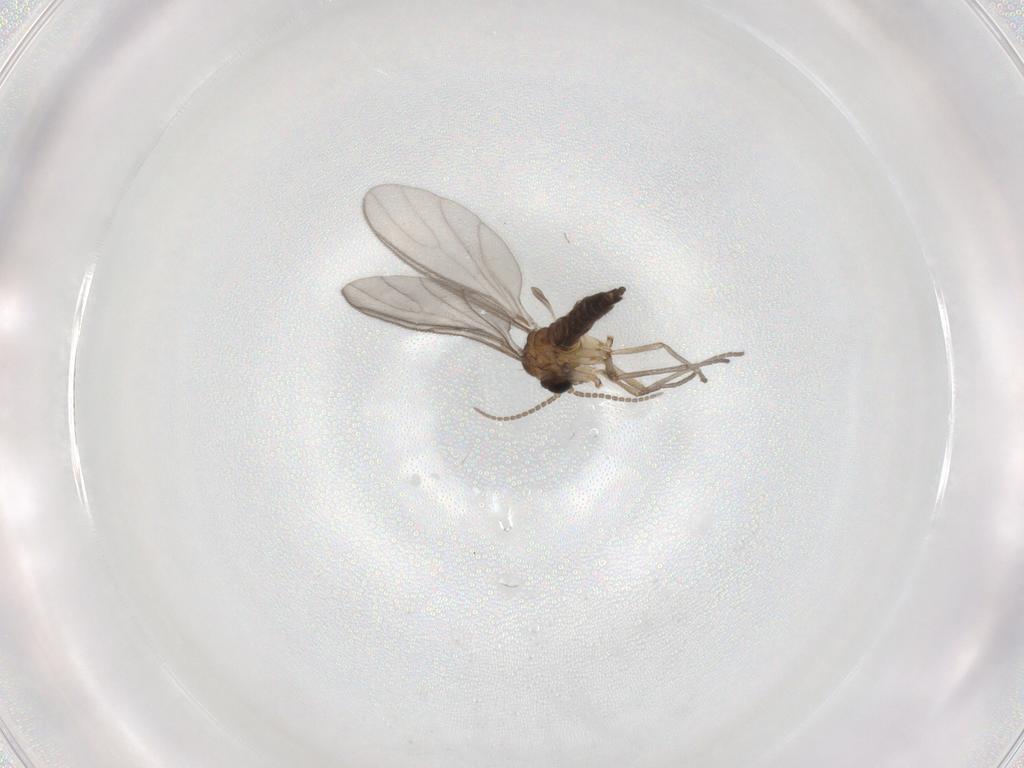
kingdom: Animalia
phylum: Arthropoda
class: Insecta
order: Diptera
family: Sciaridae
